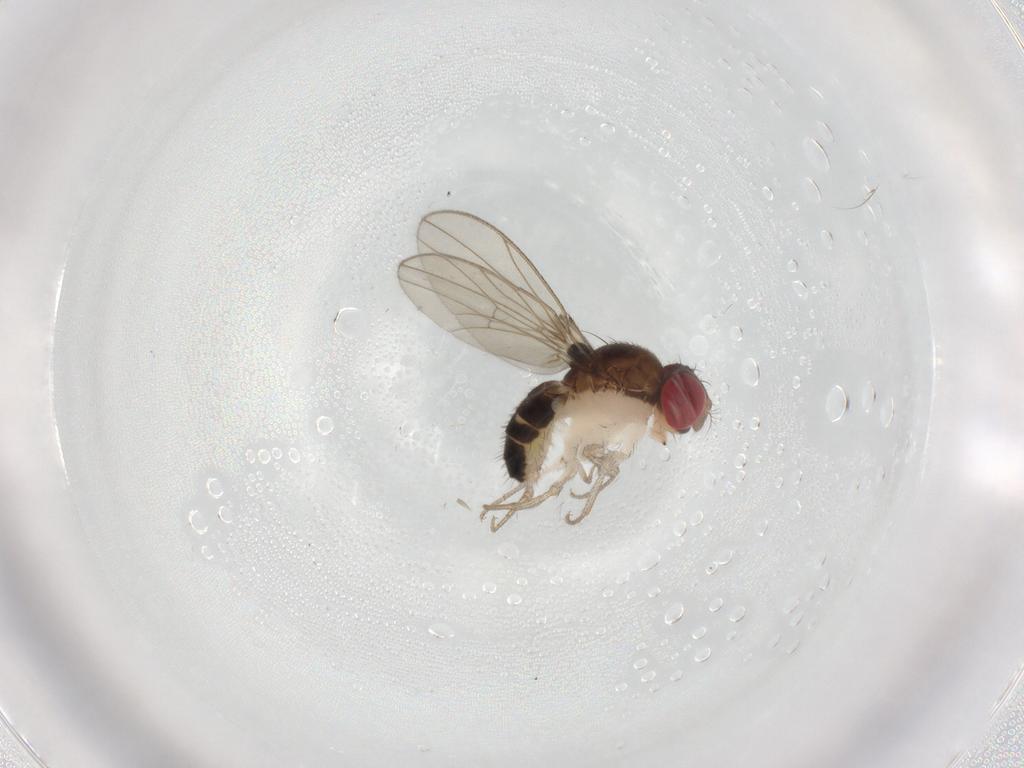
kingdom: Animalia
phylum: Arthropoda
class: Insecta
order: Diptera
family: Drosophilidae
